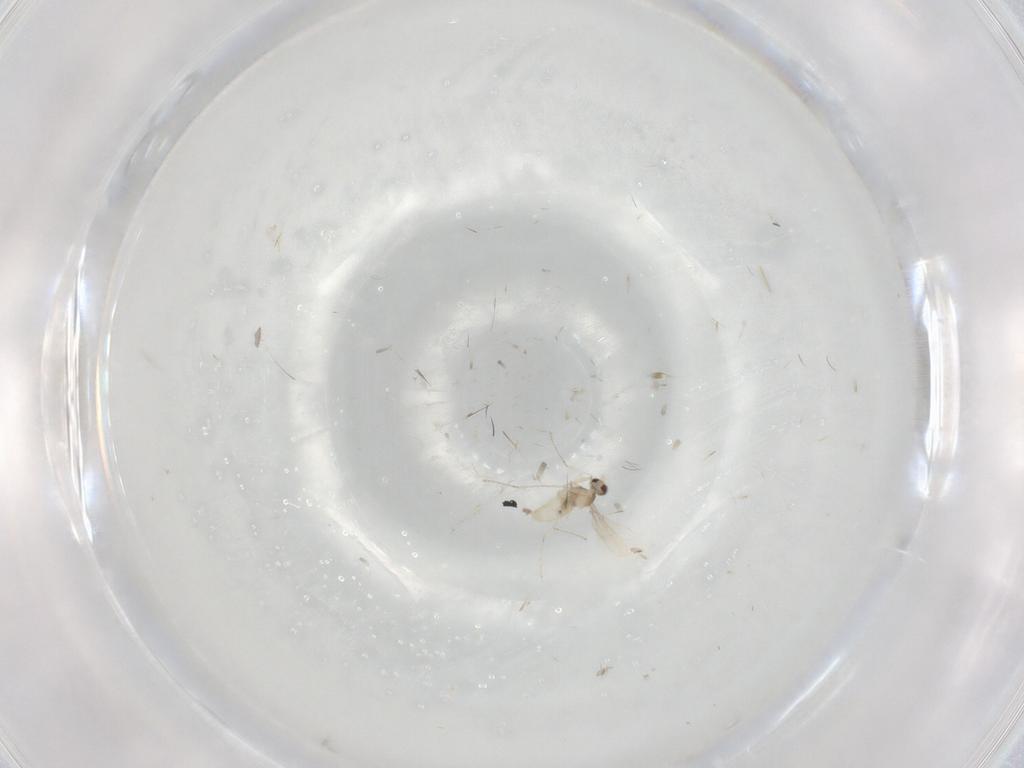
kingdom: Animalia
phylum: Arthropoda
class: Insecta
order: Diptera
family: Cecidomyiidae
